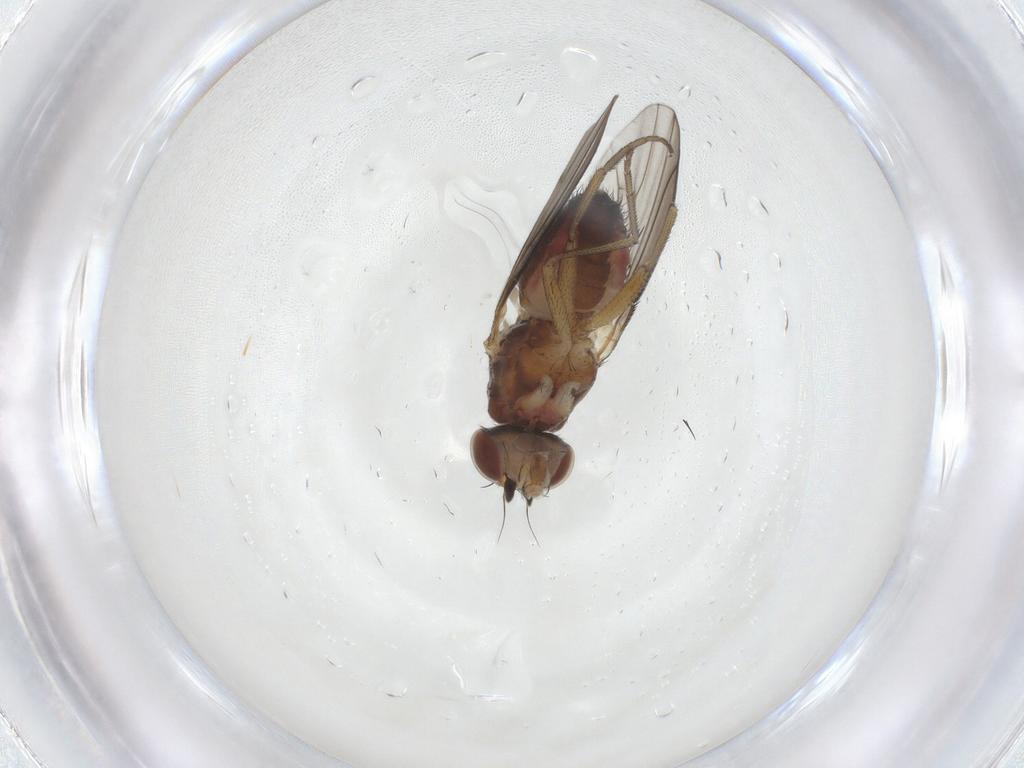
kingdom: Animalia
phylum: Arthropoda
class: Insecta
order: Diptera
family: Heleomyzidae
